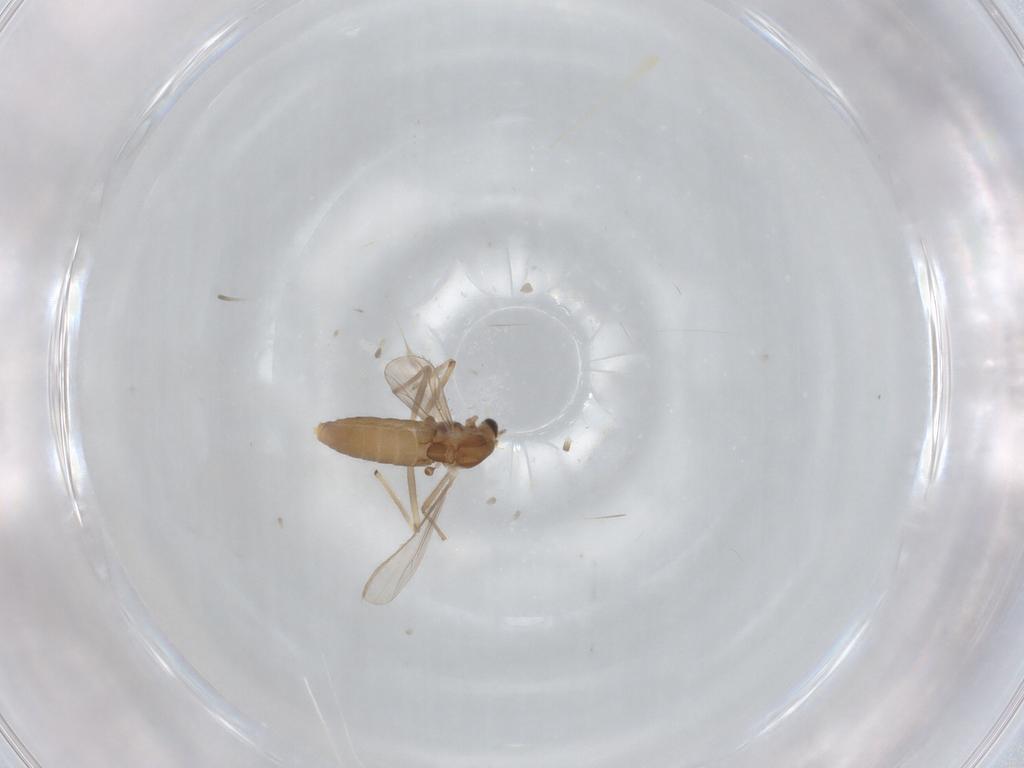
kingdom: Animalia
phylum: Arthropoda
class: Insecta
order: Diptera
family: Chironomidae
